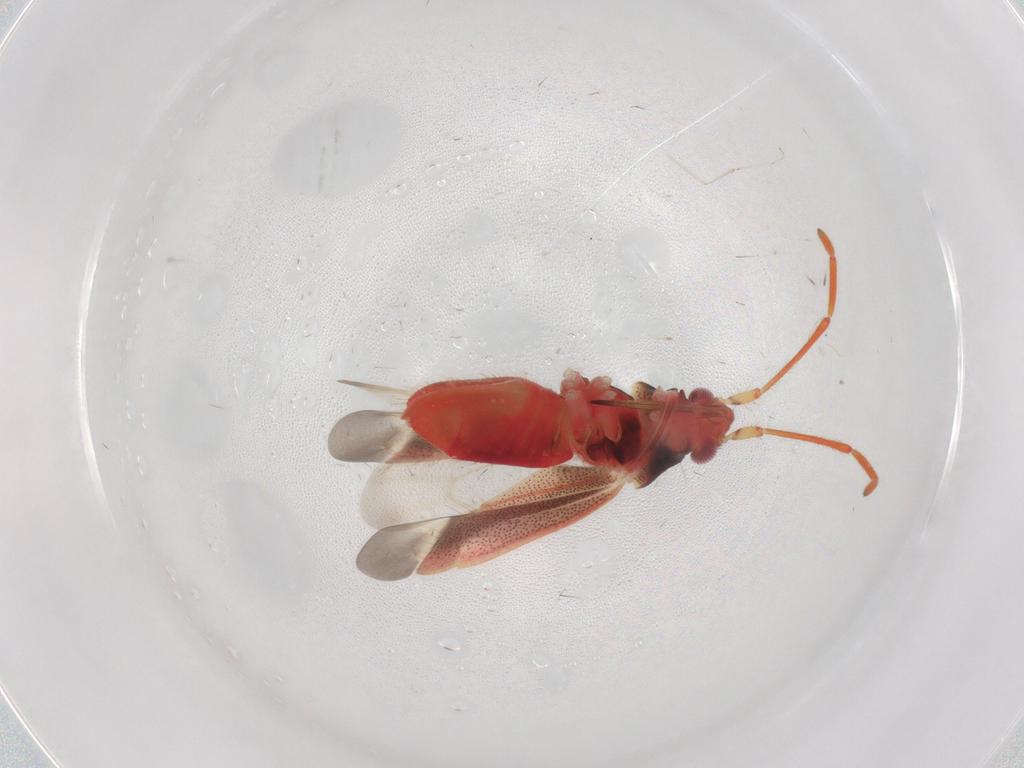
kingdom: Animalia
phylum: Arthropoda
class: Insecta
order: Hemiptera
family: Miridae
